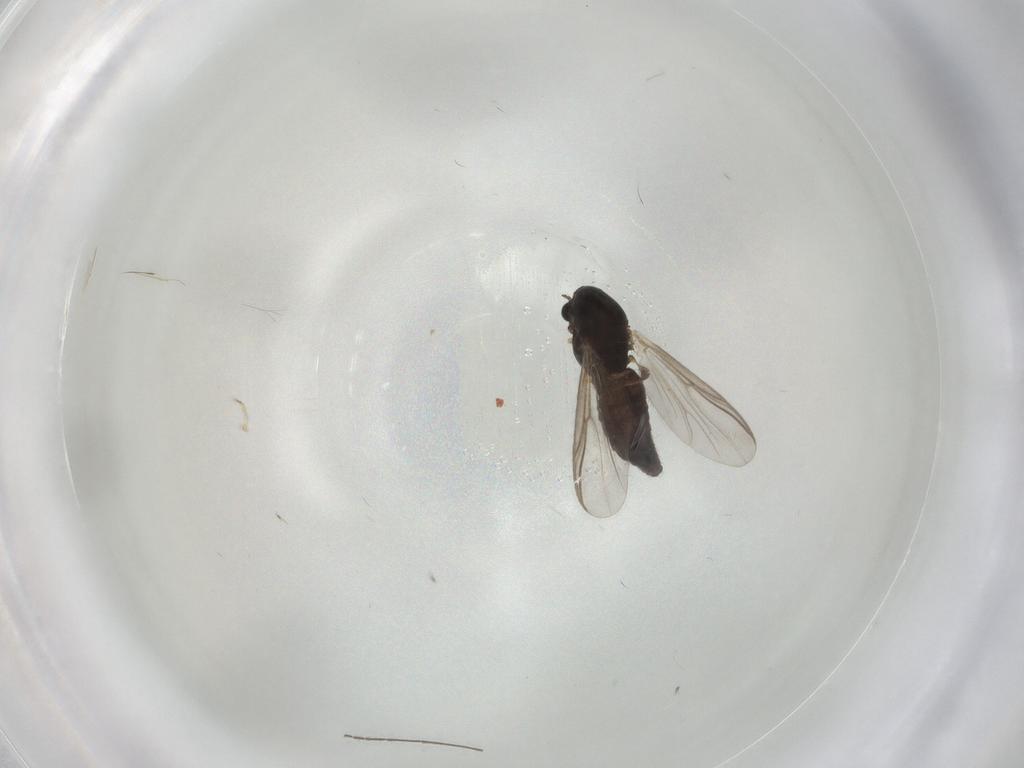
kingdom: Animalia
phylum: Arthropoda
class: Insecta
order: Diptera
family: Chironomidae
